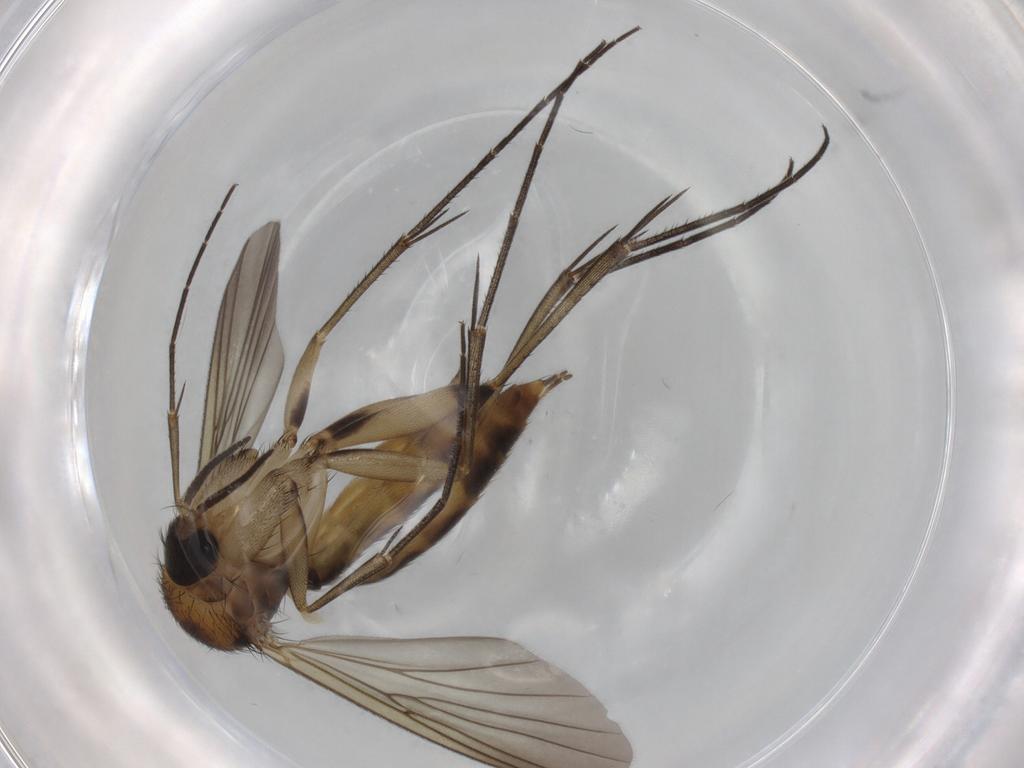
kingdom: Animalia
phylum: Arthropoda
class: Insecta
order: Diptera
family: Mycetophilidae
